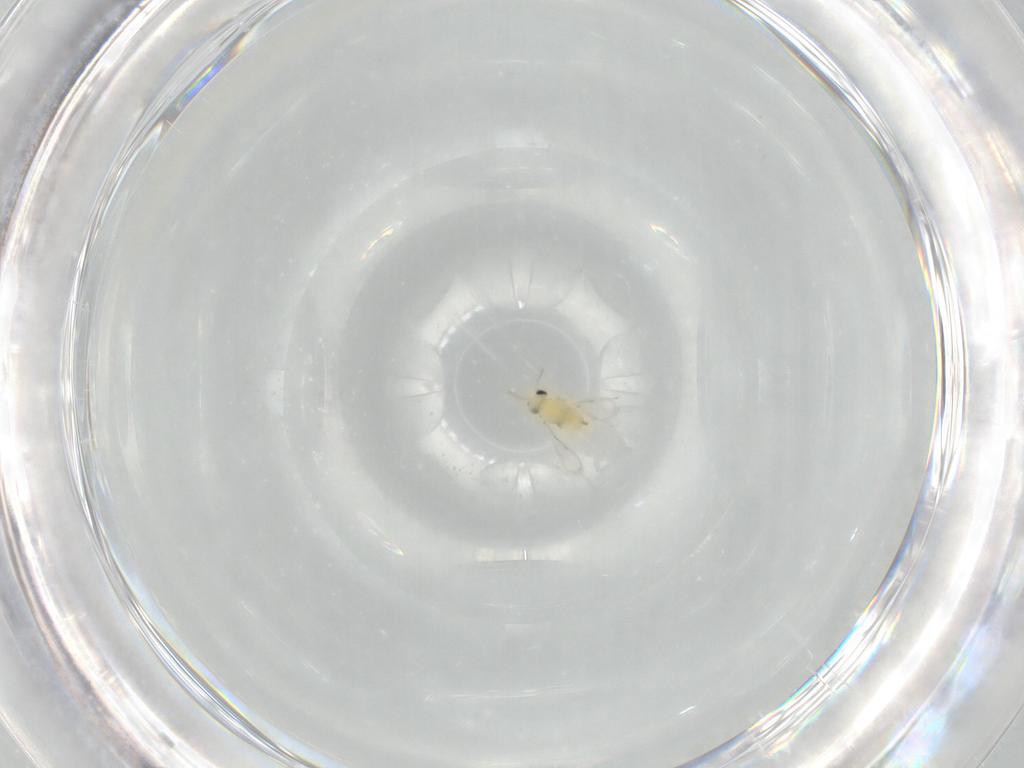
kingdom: Animalia
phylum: Arthropoda
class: Insecta
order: Hymenoptera
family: Aphelinidae
